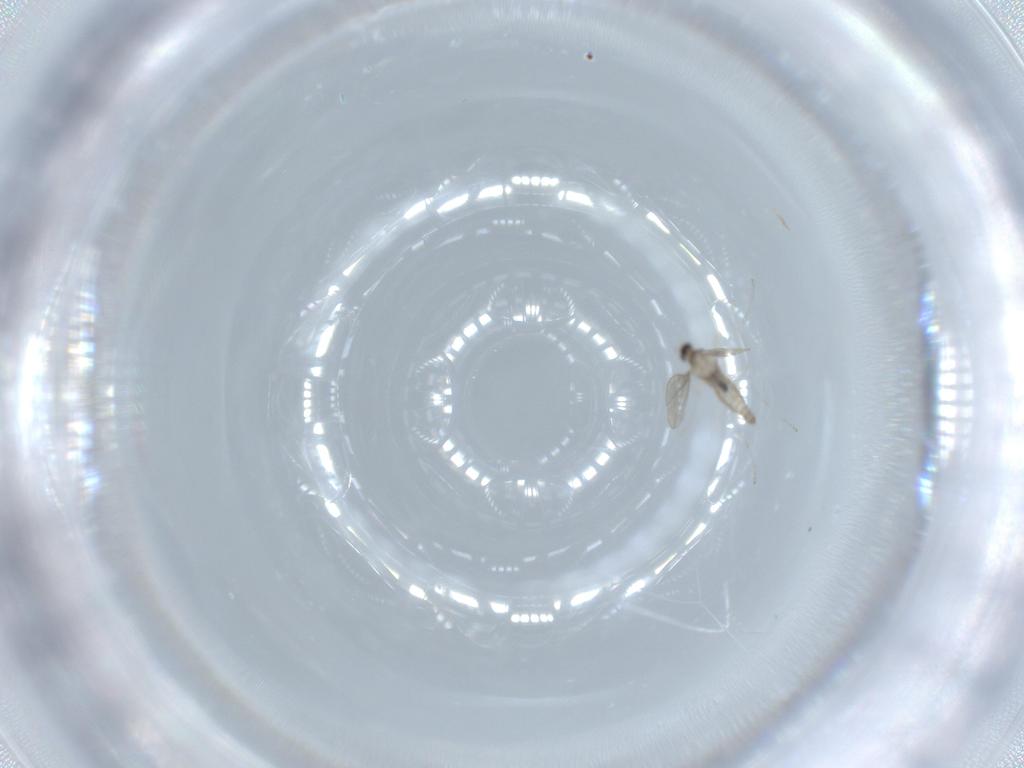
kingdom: Animalia
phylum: Arthropoda
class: Insecta
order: Diptera
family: Cecidomyiidae
